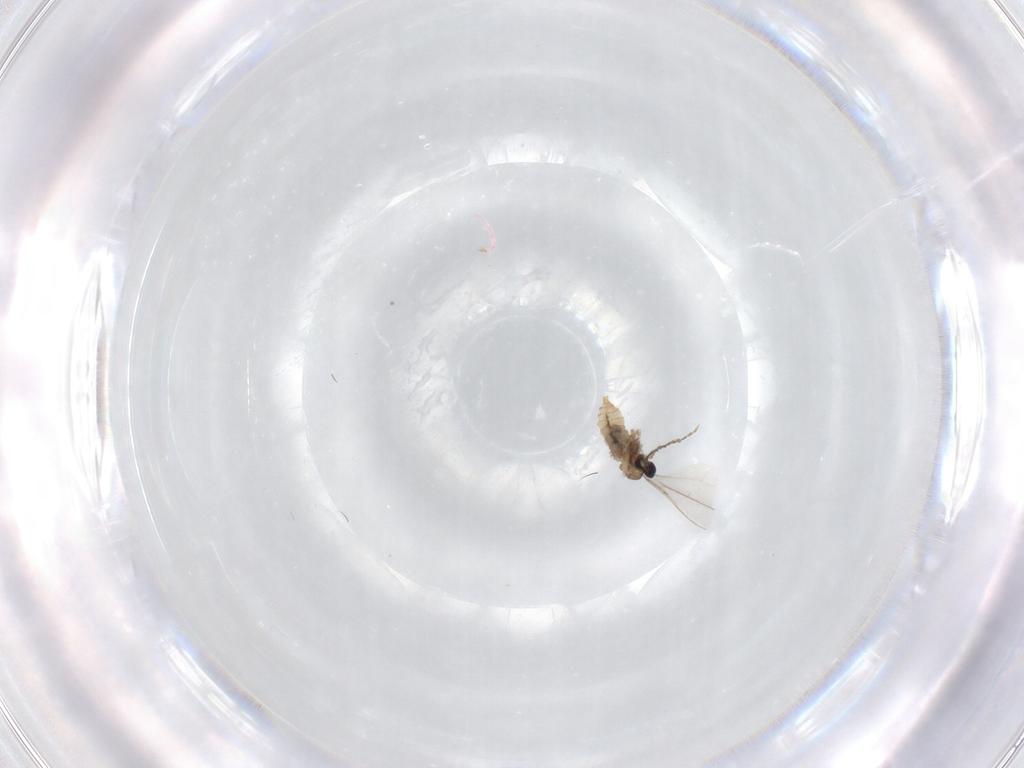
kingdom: Animalia
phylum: Arthropoda
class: Insecta
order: Diptera
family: Cecidomyiidae
